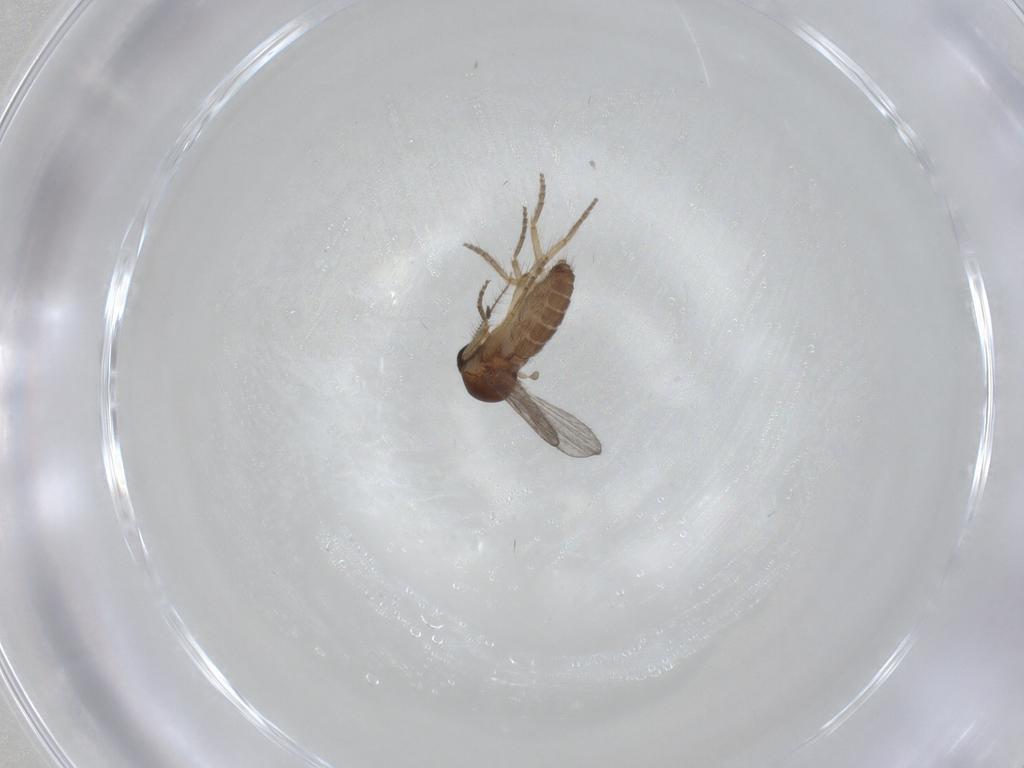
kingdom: Animalia
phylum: Arthropoda
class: Insecta
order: Diptera
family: Ceratopogonidae
